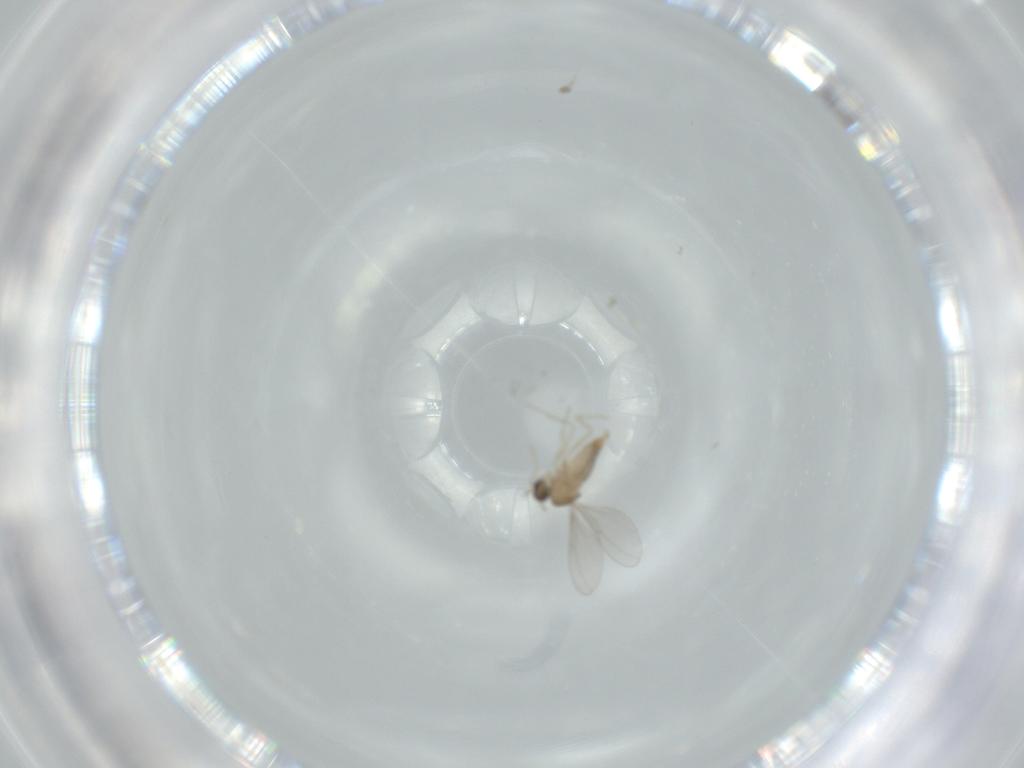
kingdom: Animalia
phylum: Arthropoda
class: Insecta
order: Diptera
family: Cecidomyiidae
